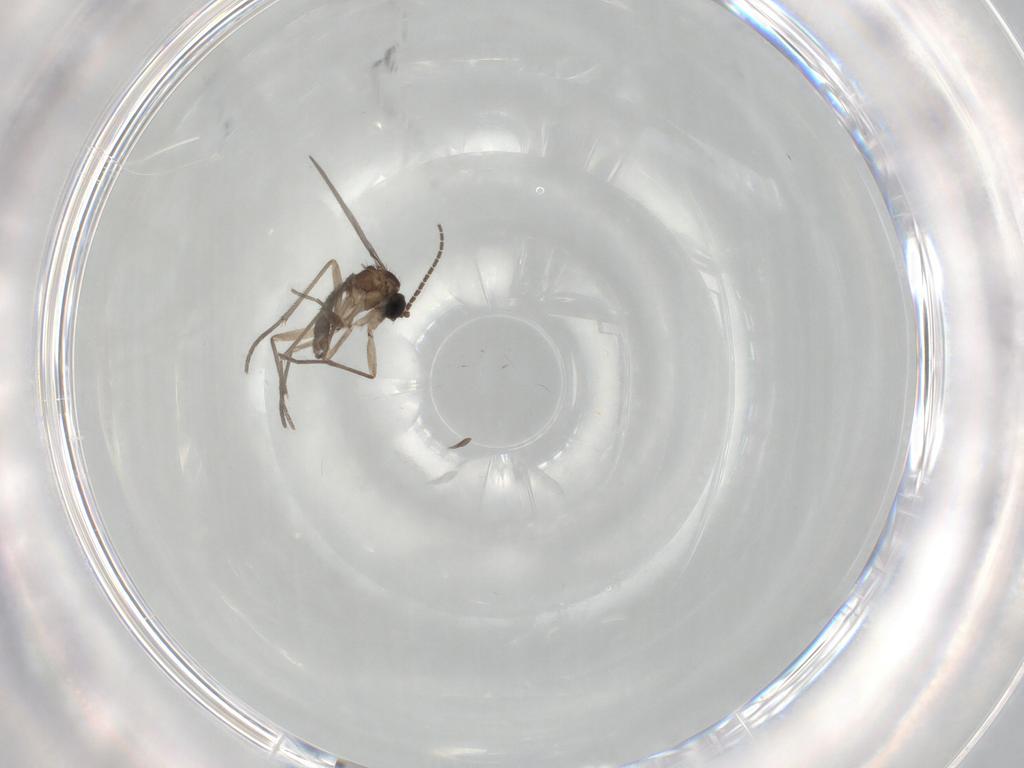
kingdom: Animalia
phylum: Arthropoda
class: Insecta
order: Diptera
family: Sciaridae
